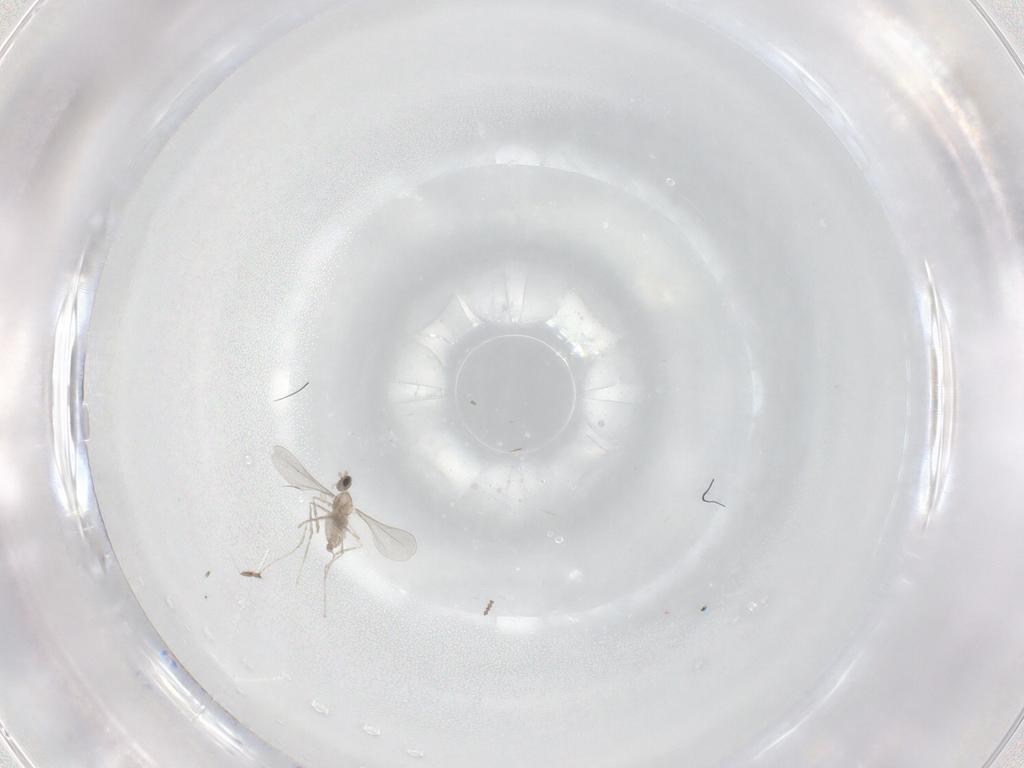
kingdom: Animalia
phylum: Arthropoda
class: Insecta
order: Diptera
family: Cecidomyiidae
